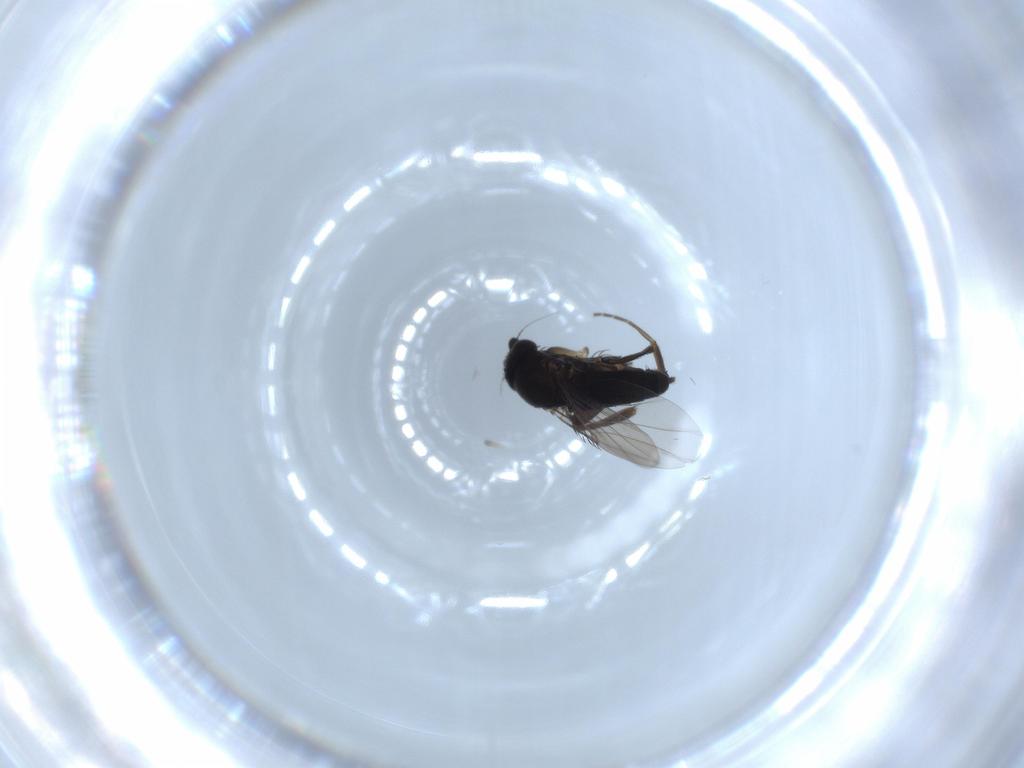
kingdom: Animalia
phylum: Arthropoda
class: Insecta
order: Diptera
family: Phoridae
